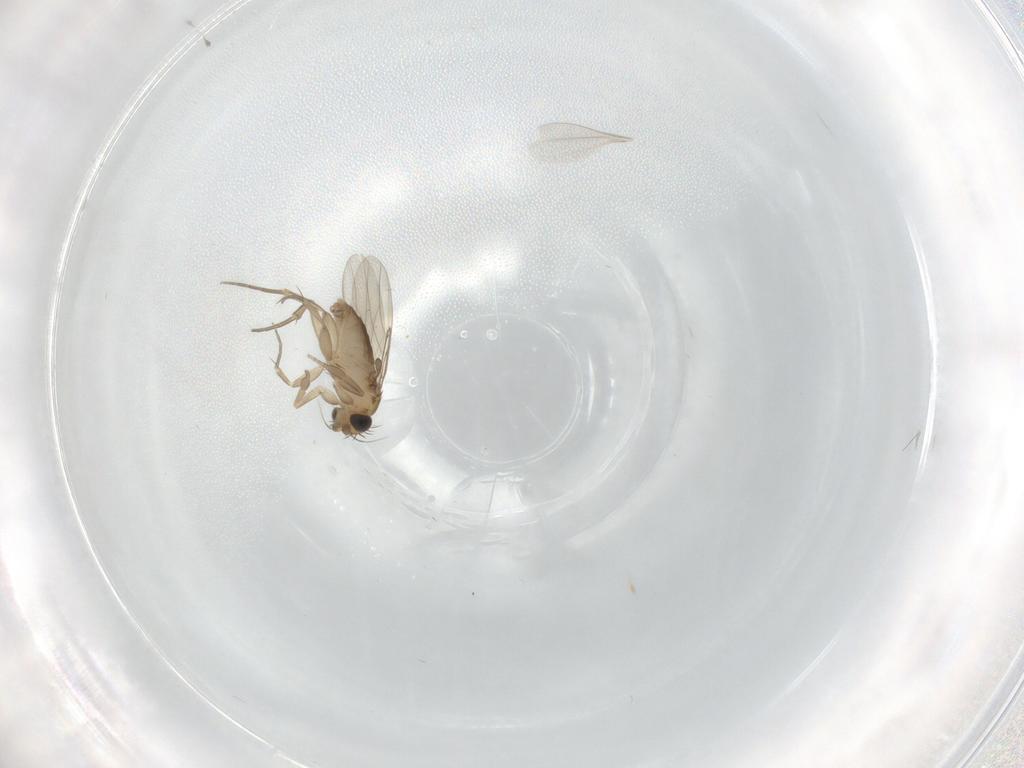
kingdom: Animalia
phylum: Arthropoda
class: Insecta
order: Diptera
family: Phoridae
